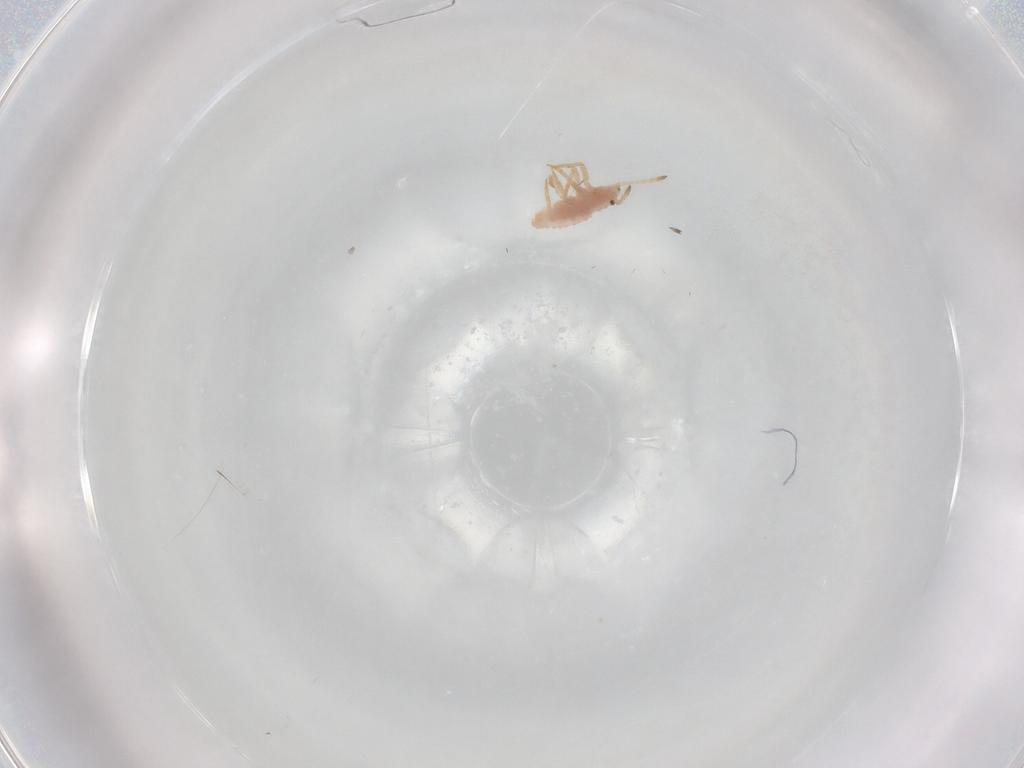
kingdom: Animalia
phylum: Arthropoda
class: Insecta
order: Hemiptera
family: Coccoidea_incertae_sedis
